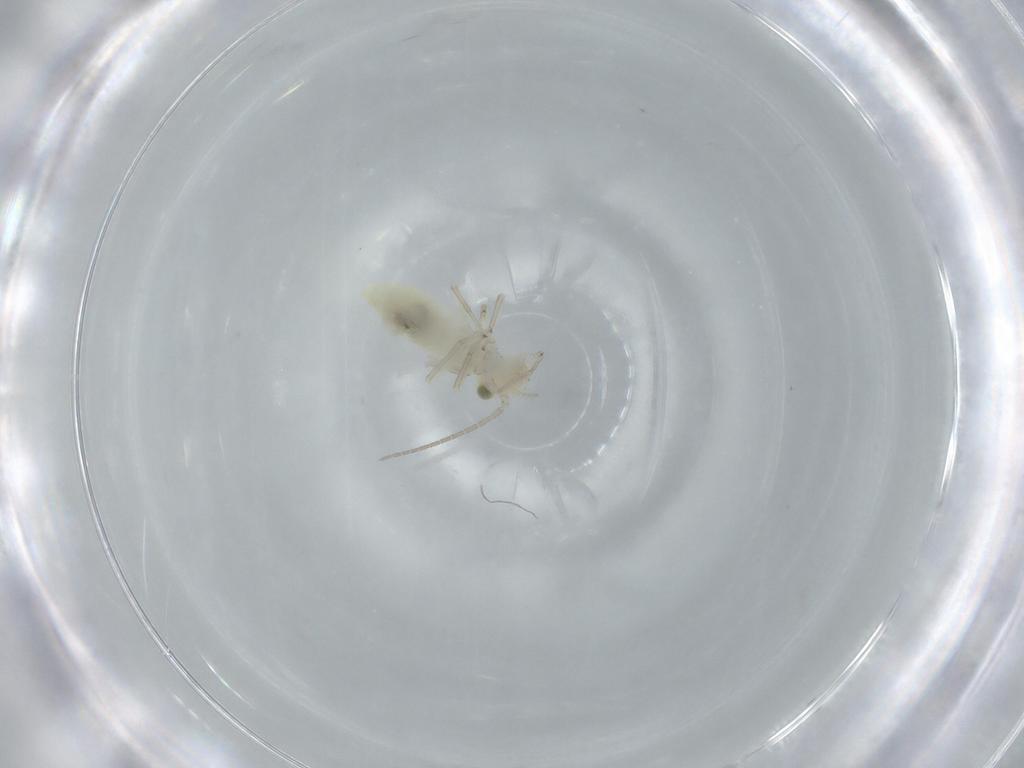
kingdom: Animalia
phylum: Arthropoda
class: Insecta
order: Psocodea
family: Caeciliusidae
